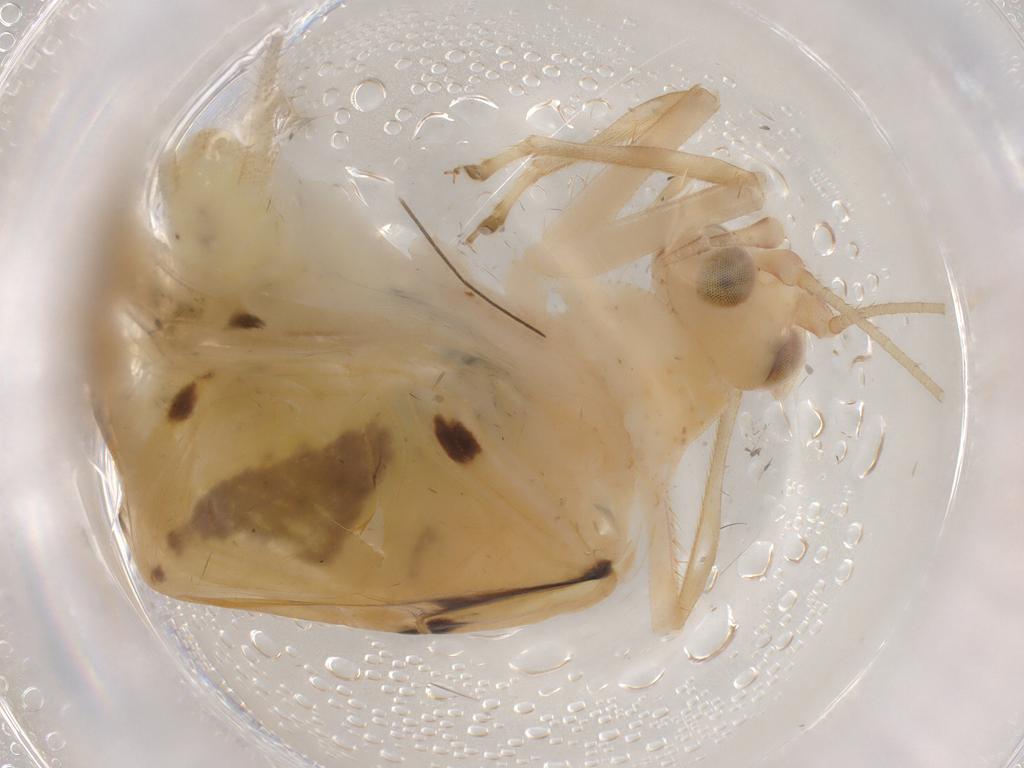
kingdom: Animalia
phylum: Arthropoda
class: Insecta
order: Orthoptera
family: Trigonidiidae
